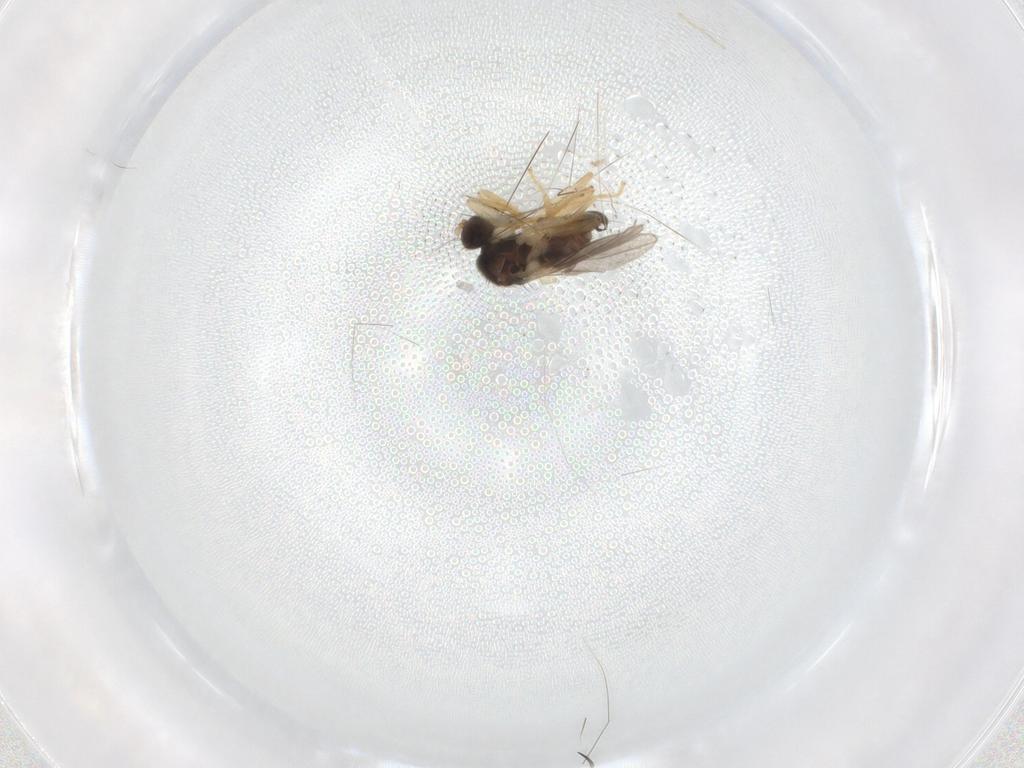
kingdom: Animalia
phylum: Arthropoda
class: Insecta
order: Diptera
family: Hybotidae
